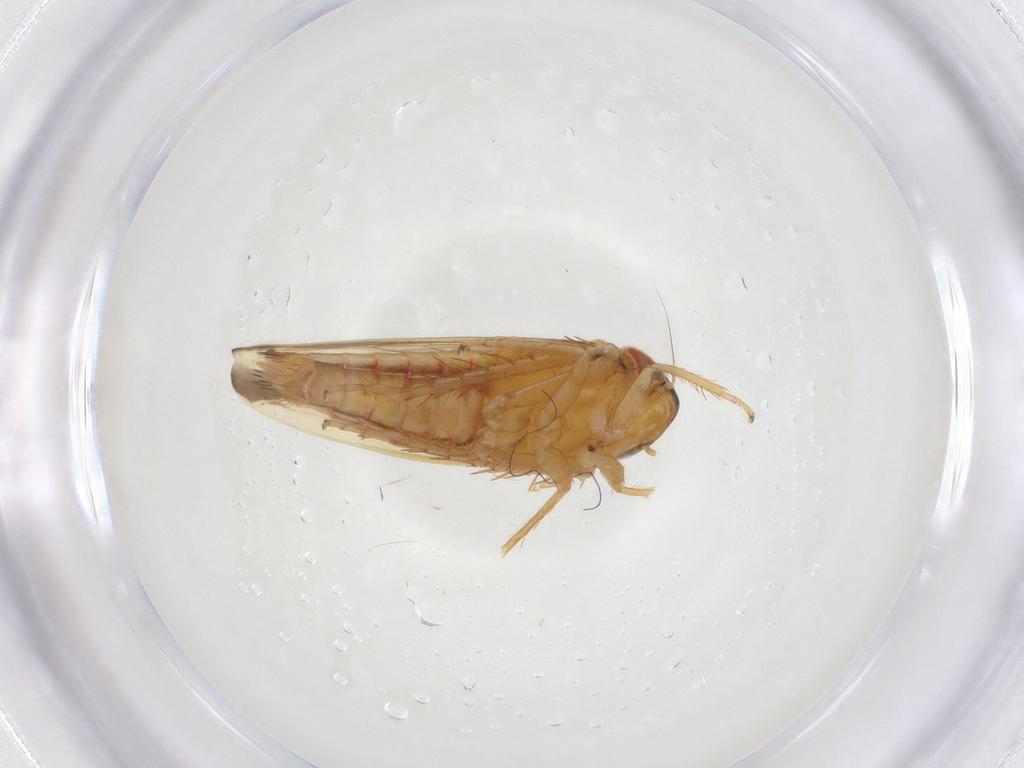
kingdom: Animalia
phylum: Arthropoda
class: Insecta
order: Hemiptera
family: Cicadellidae
